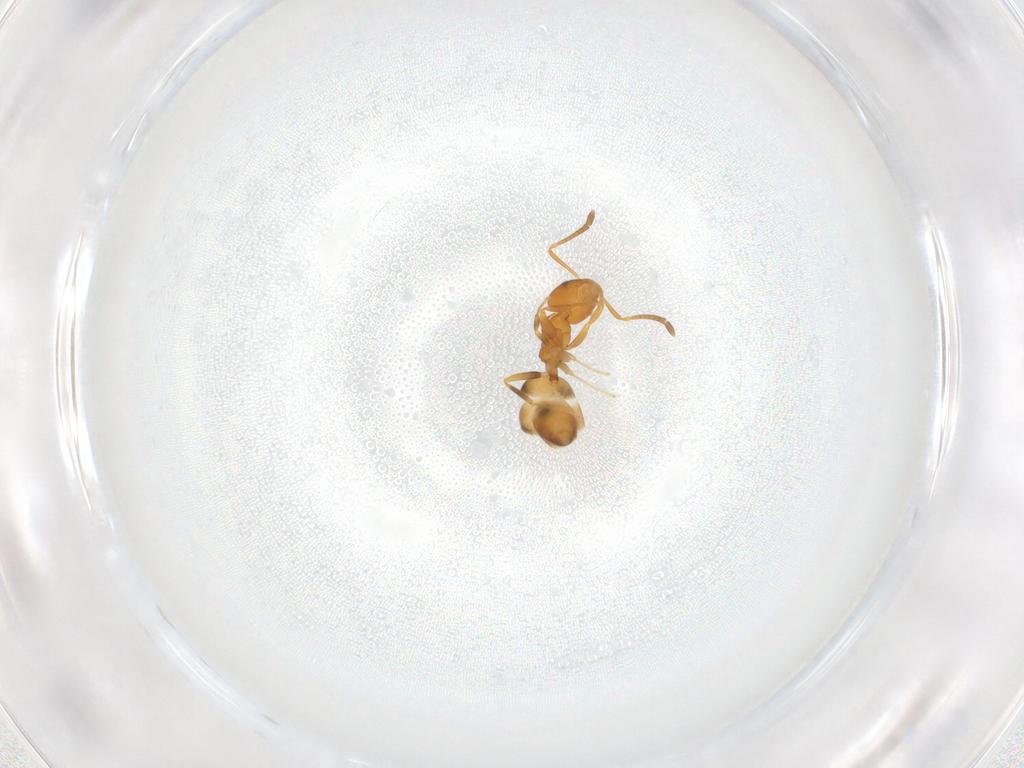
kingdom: Animalia
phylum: Arthropoda
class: Insecta
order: Hymenoptera
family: Formicidae
